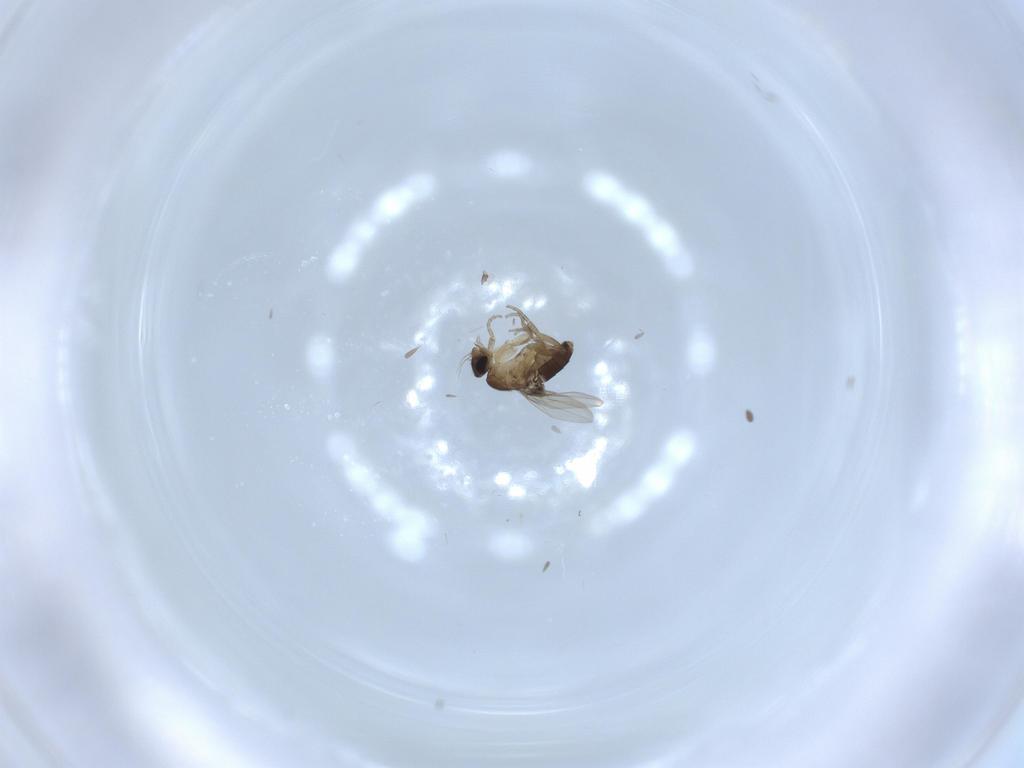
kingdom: Animalia
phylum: Arthropoda
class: Insecta
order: Diptera
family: Phoridae
